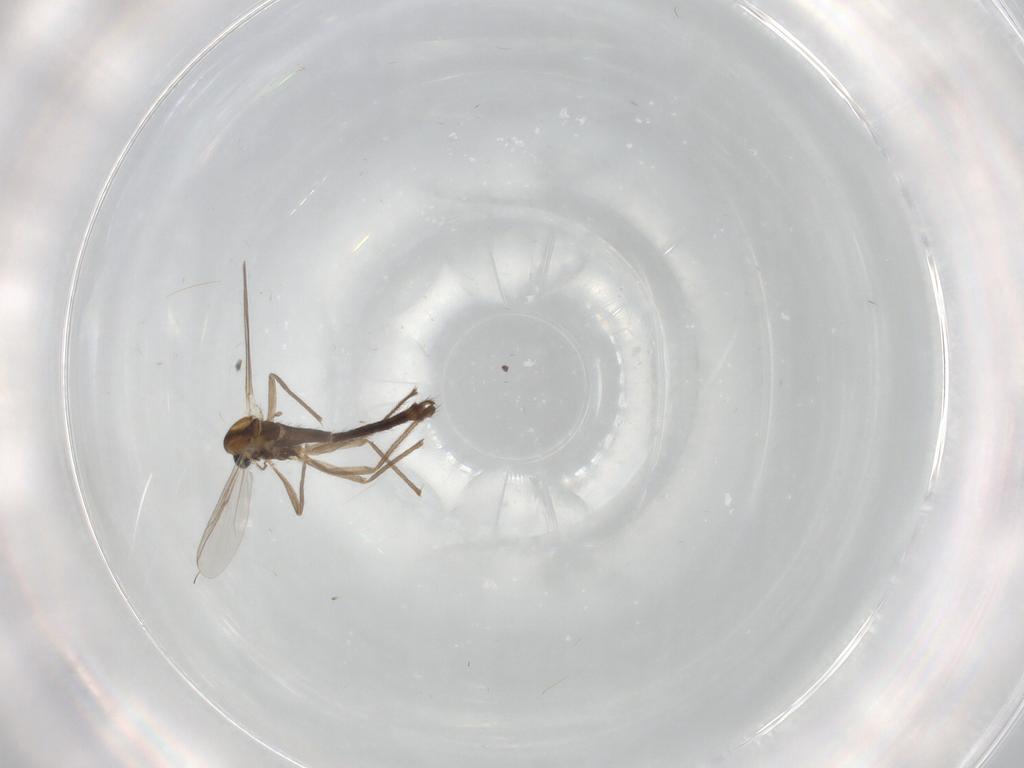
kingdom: Animalia
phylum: Arthropoda
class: Insecta
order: Diptera
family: Chironomidae
